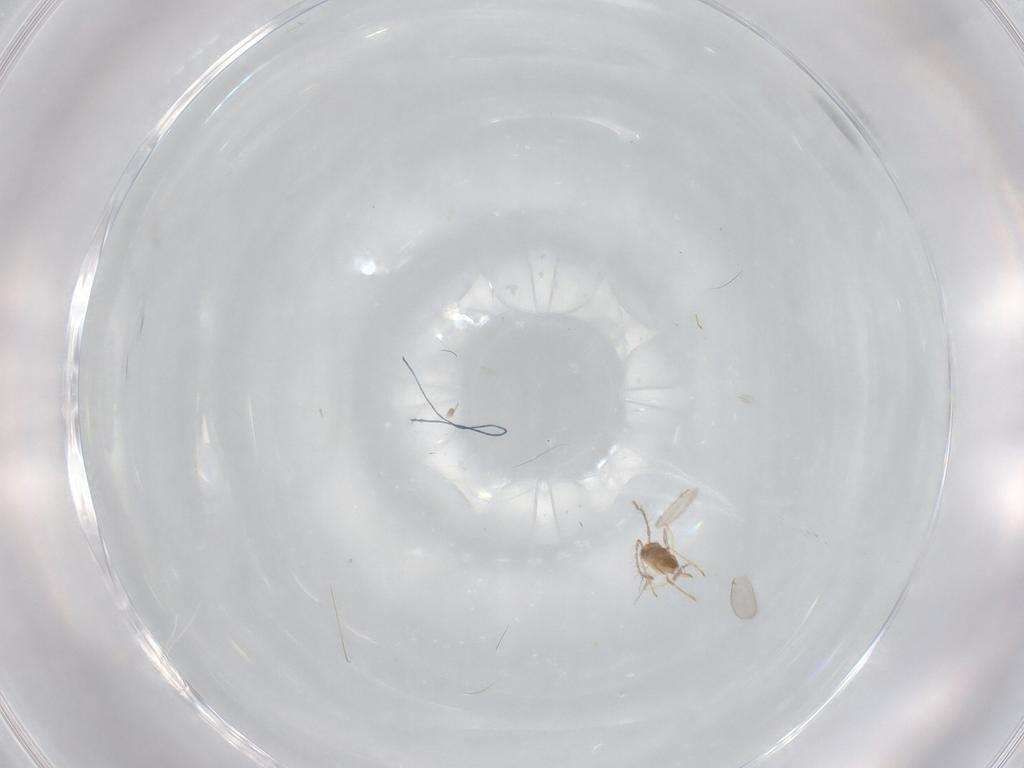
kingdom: Animalia
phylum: Arthropoda
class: Insecta
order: Hymenoptera
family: Encyrtidae
